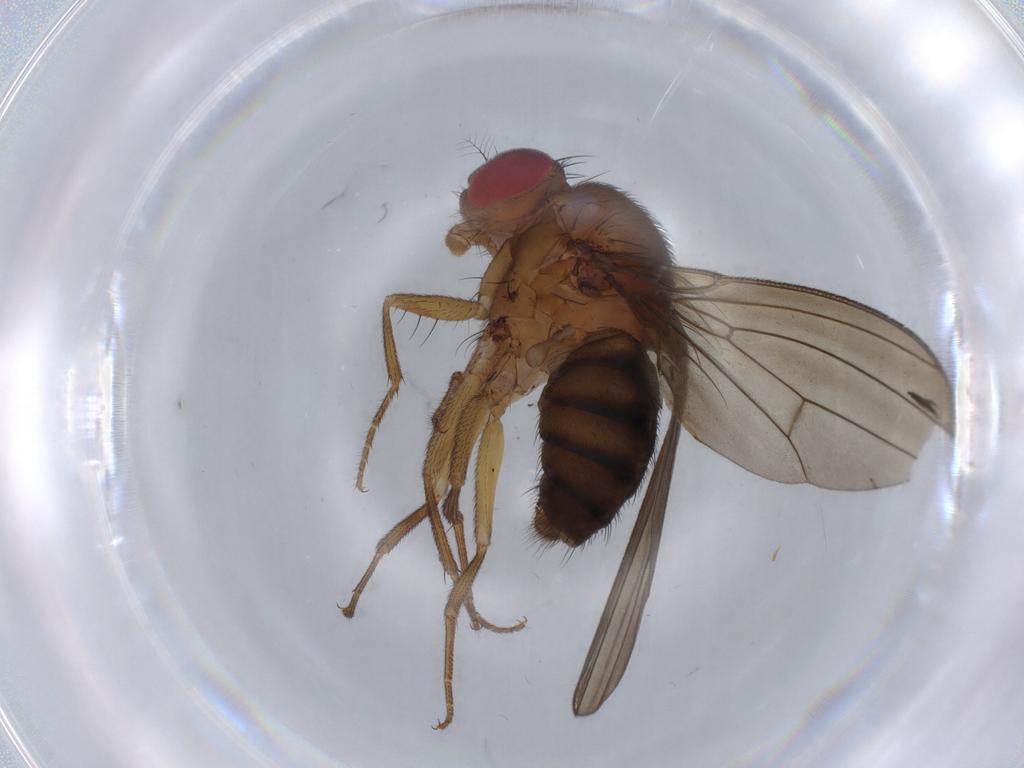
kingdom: Animalia
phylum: Arthropoda
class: Insecta
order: Diptera
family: Drosophilidae
